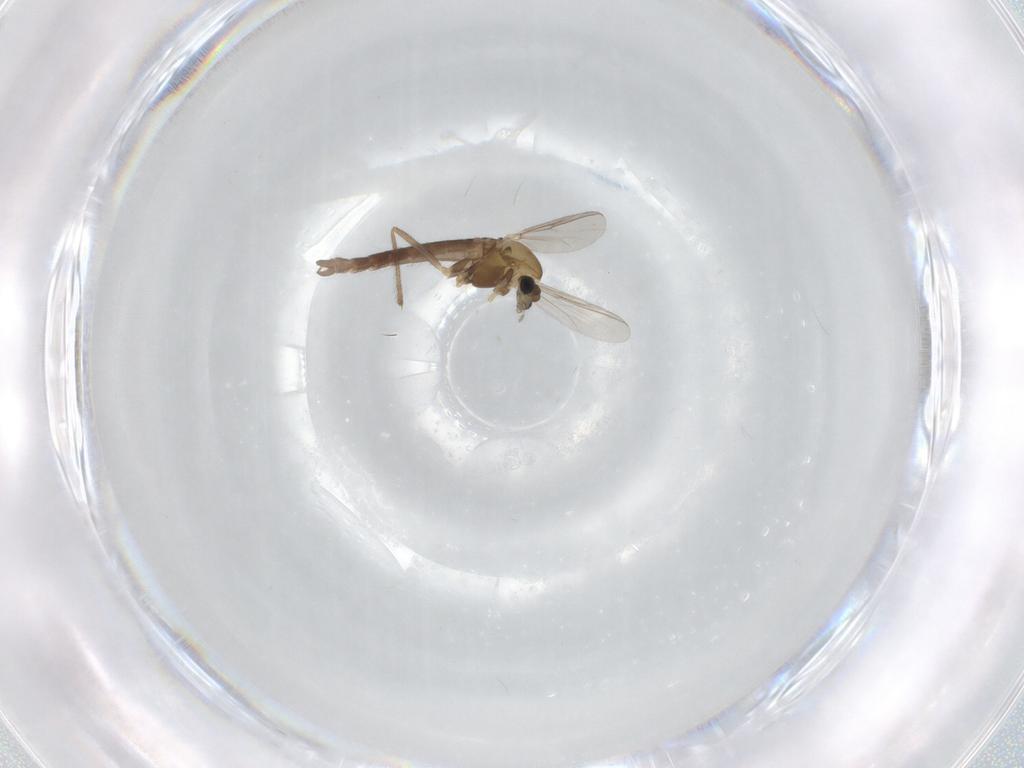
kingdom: Animalia
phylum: Arthropoda
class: Insecta
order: Diptera
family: Chironomidae
